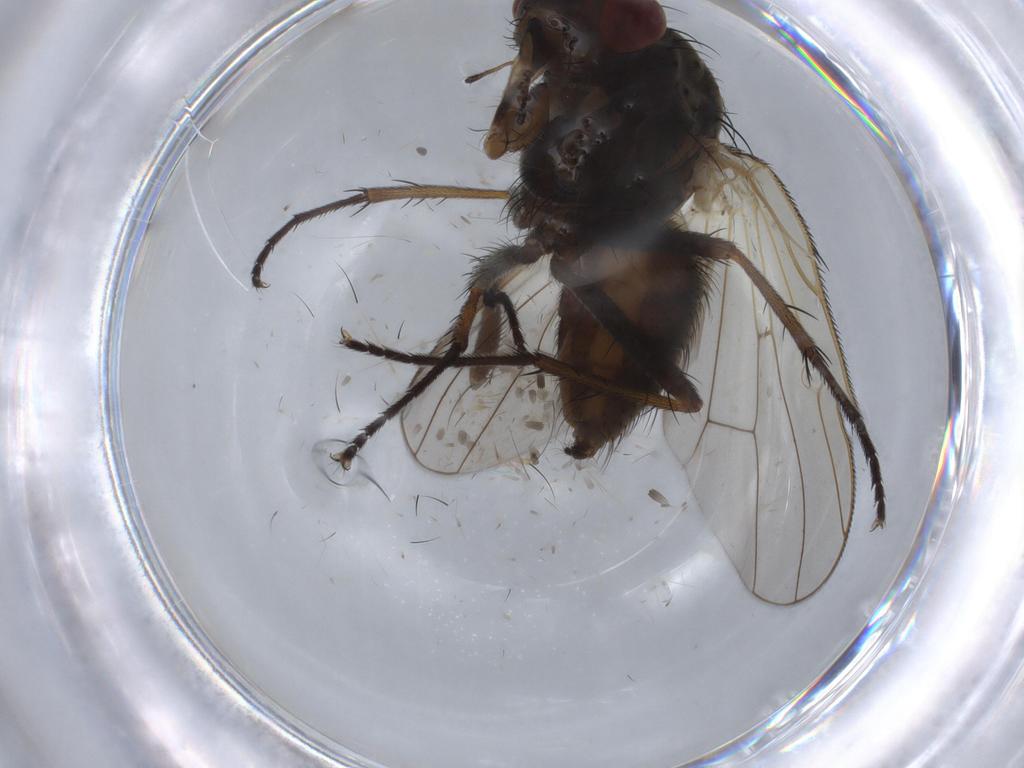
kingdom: Animalia
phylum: Arthropoda
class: Insecta
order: Diptera
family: Anthomyiidae
